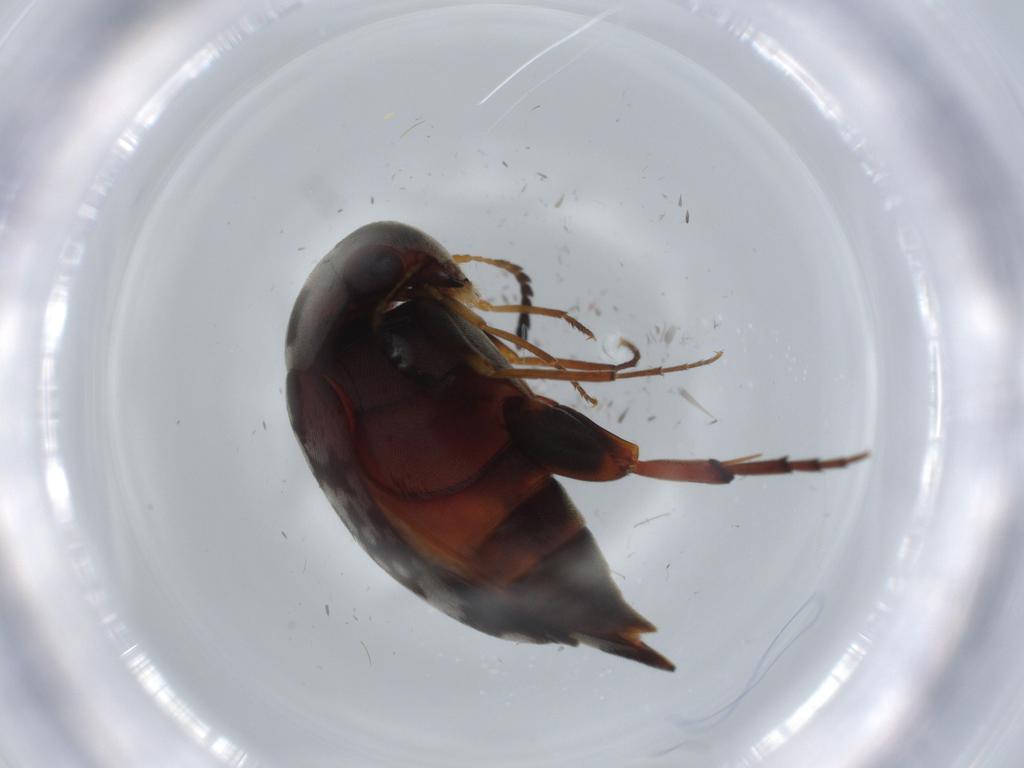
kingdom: Animalia
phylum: Arthropoda
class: Insecta
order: Coleoptera
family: Mordellidae
